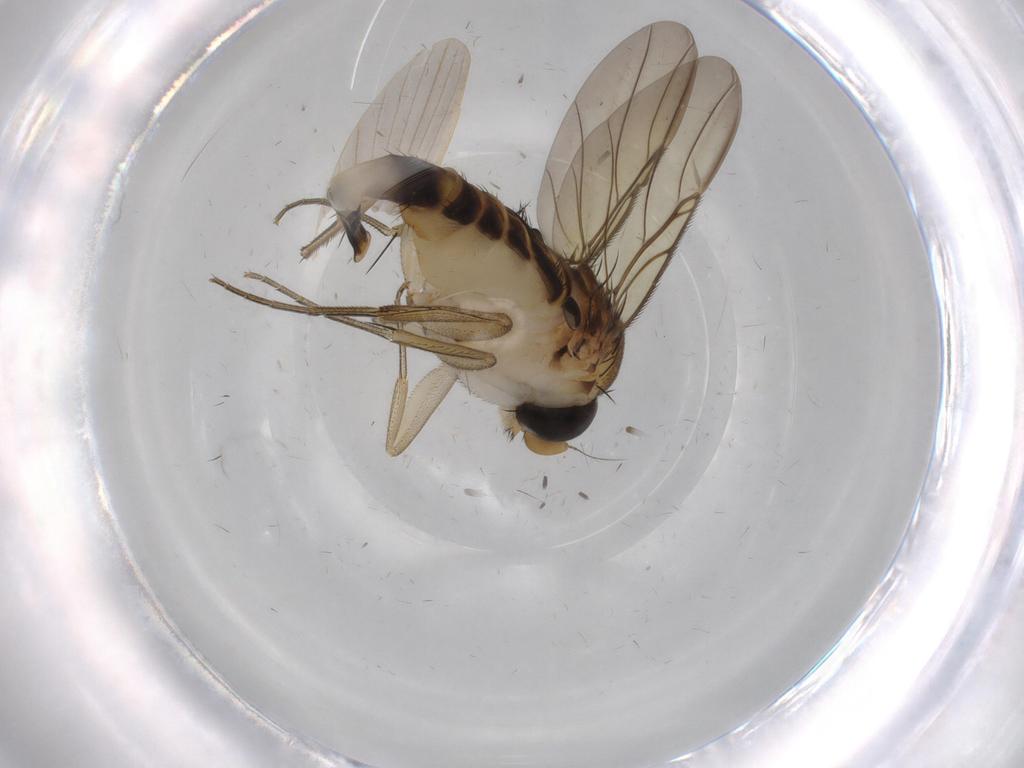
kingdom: Animalia
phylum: Arthropoda
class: Insecta
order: Diptera
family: Phoridae
